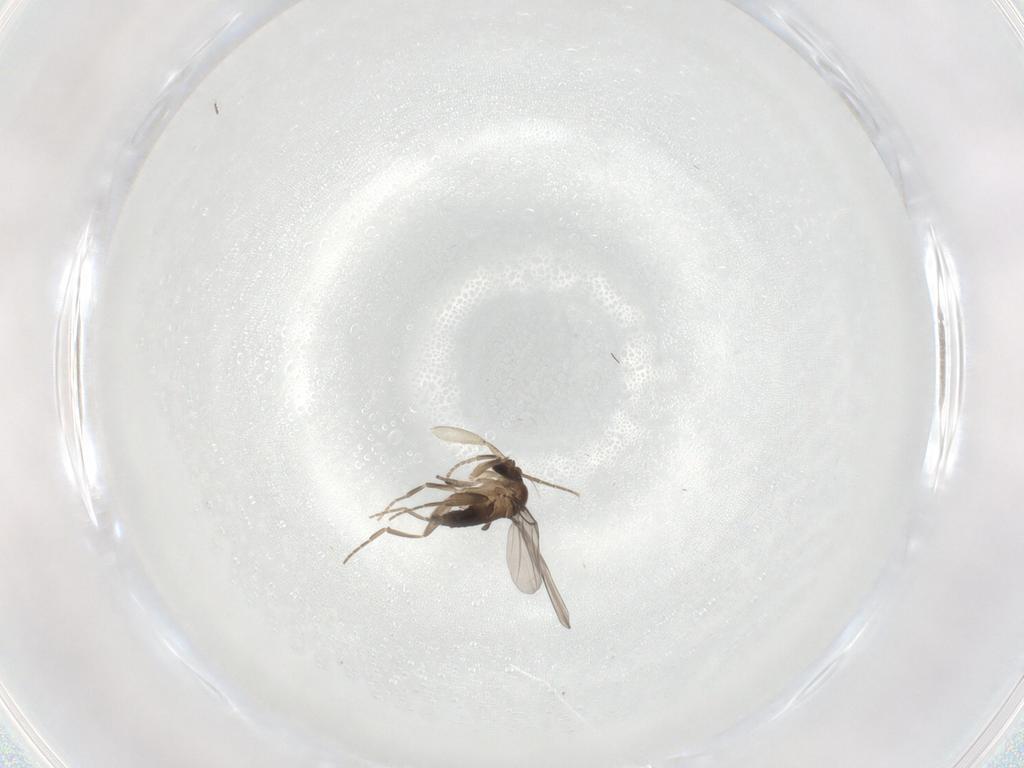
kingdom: Animalia
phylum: Arthropoda
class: Insecta
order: Diptera
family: Phoridae
